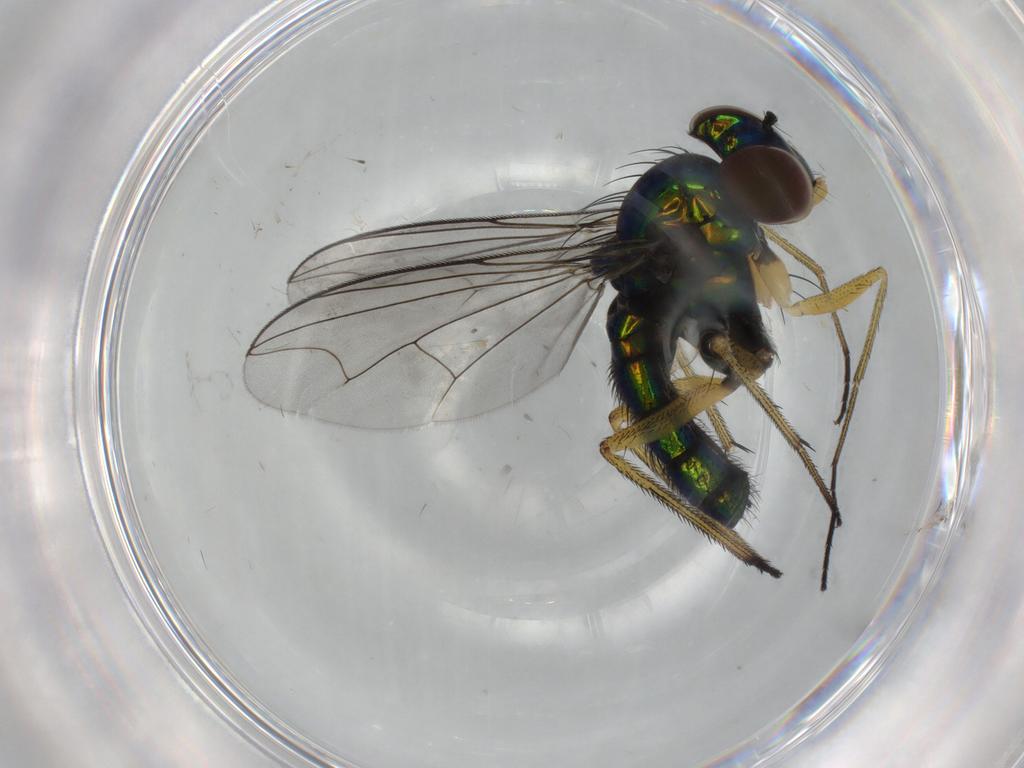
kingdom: Animalia
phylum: Arthropoda
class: Insecta
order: Diptera
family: Dolichopodidae
